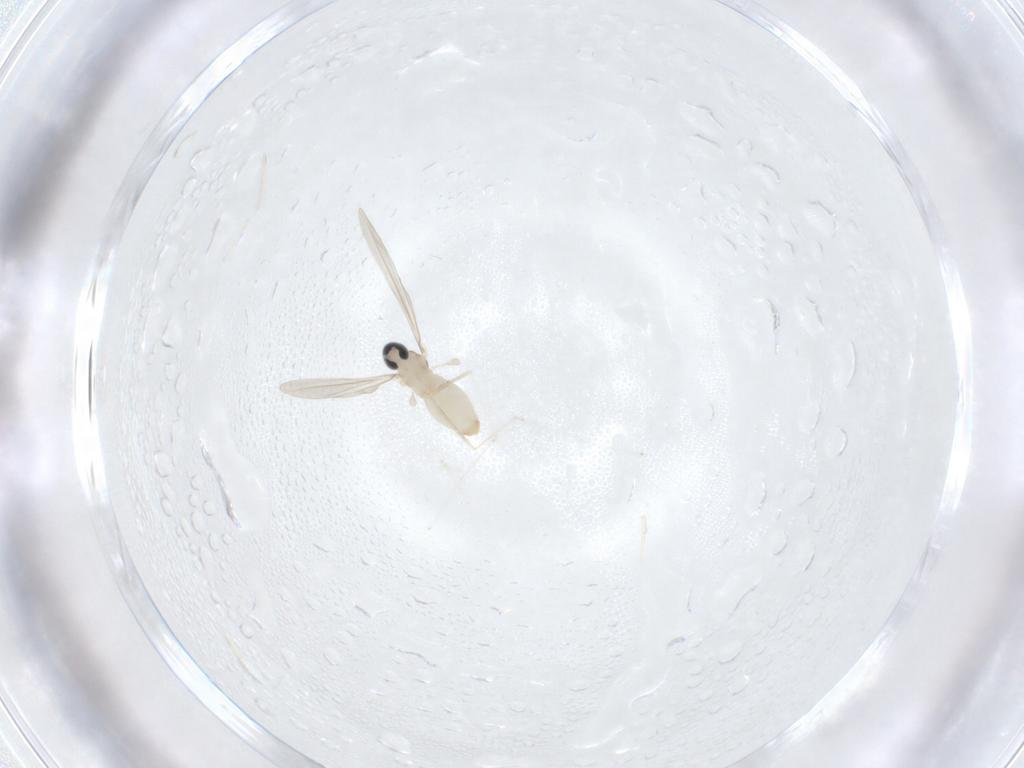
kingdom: Animalia
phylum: Arthropoda
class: Insecta
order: Diptera
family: Cecidomyiidae
